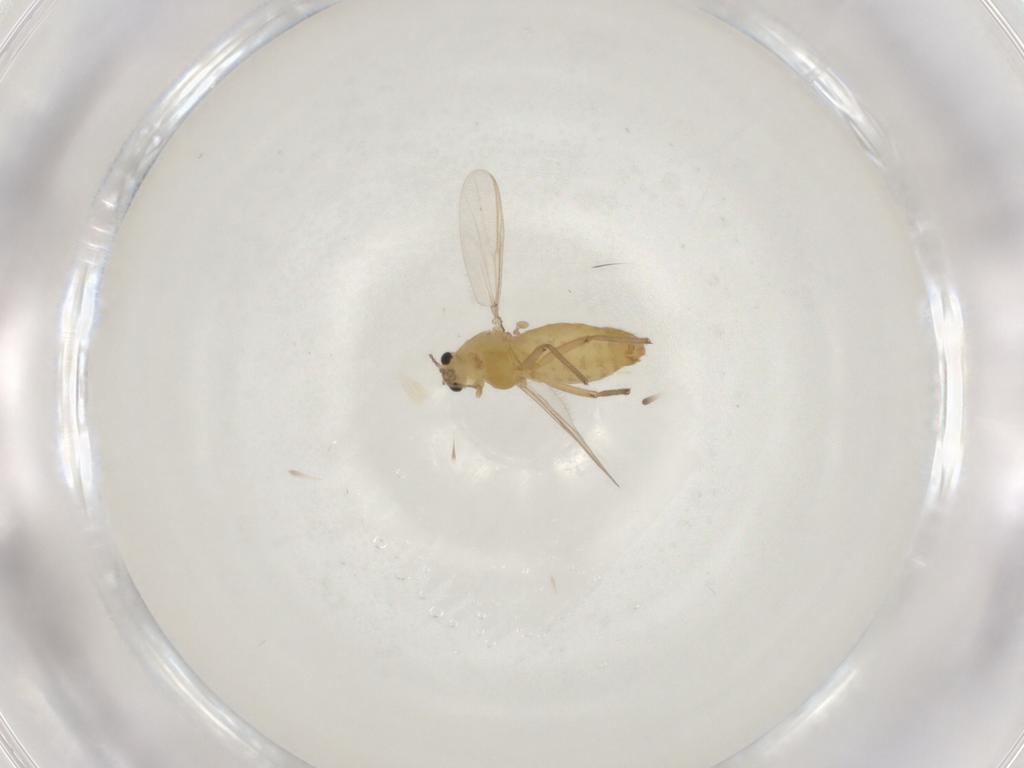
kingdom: Animalia
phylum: Arthropoda
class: Insecta
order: Diptera
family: Chironomidae
